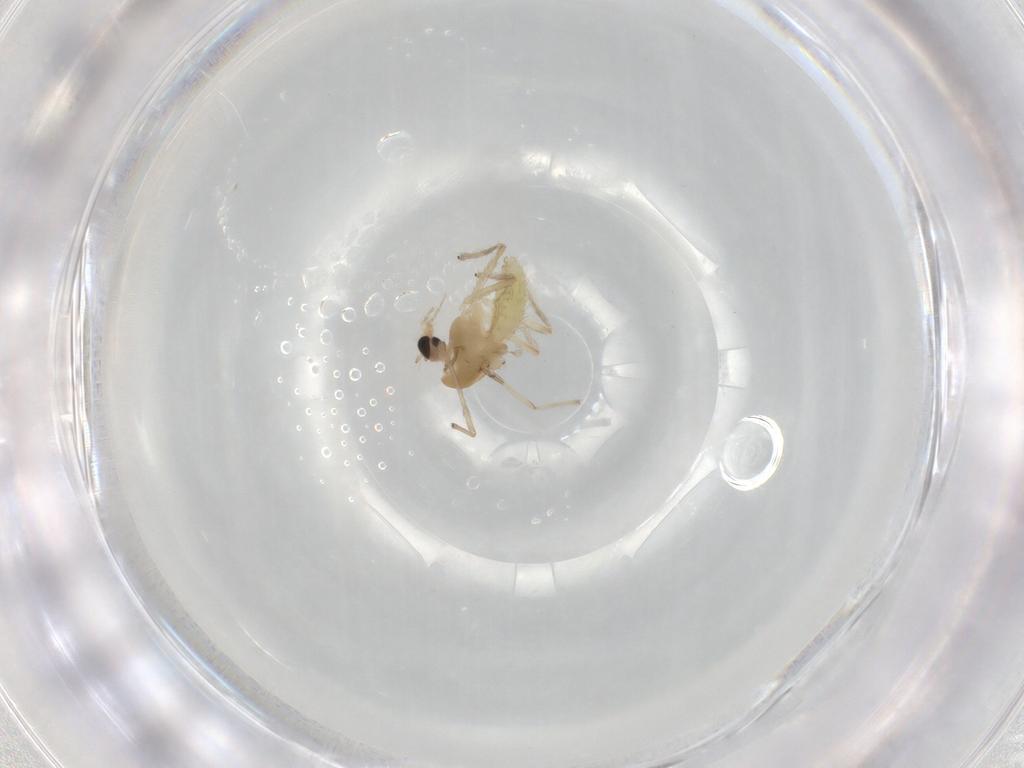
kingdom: Animalia
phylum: Arthropoda
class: Insecta
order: Diptera
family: Chironomidae
